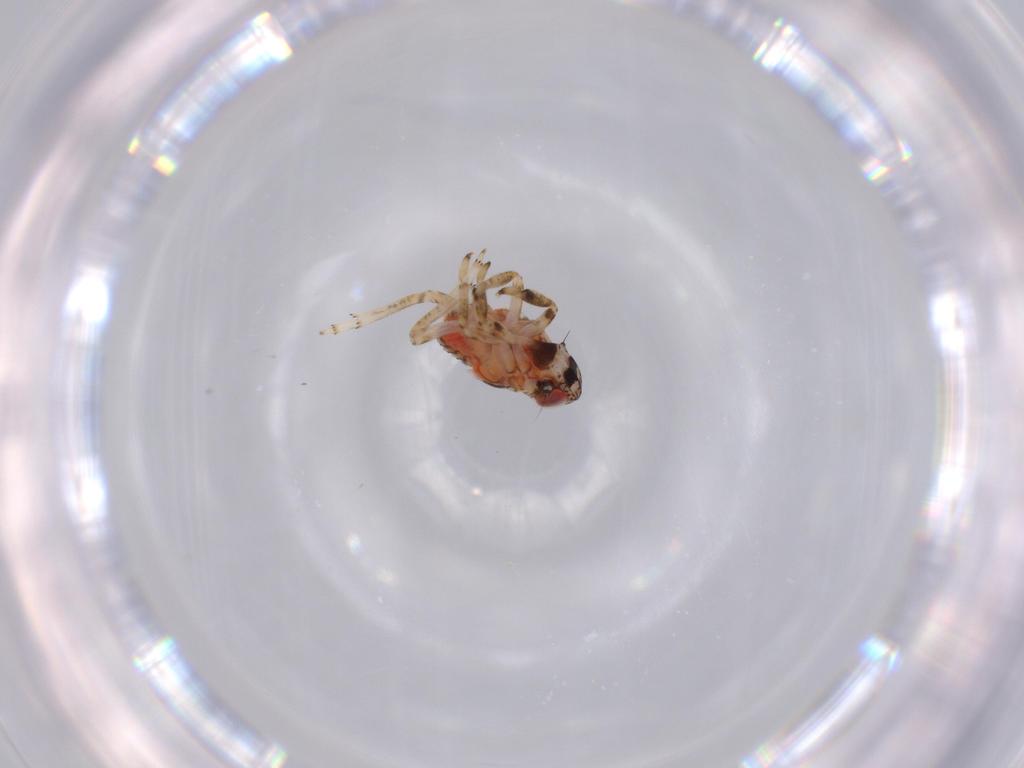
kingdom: Animalia
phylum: Arthropoda
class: Insecta
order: Hemiptera
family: Issidae
